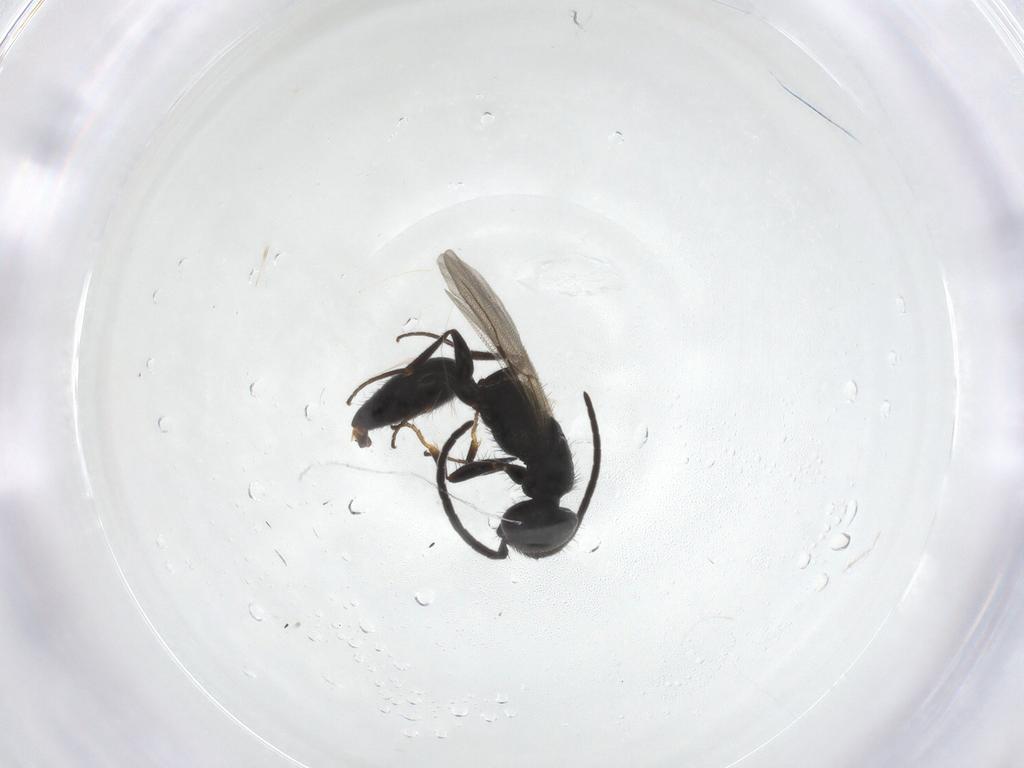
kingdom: Animalia
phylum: Arthropoda
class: Insecta
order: Hymenoptera
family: Bethylidae
